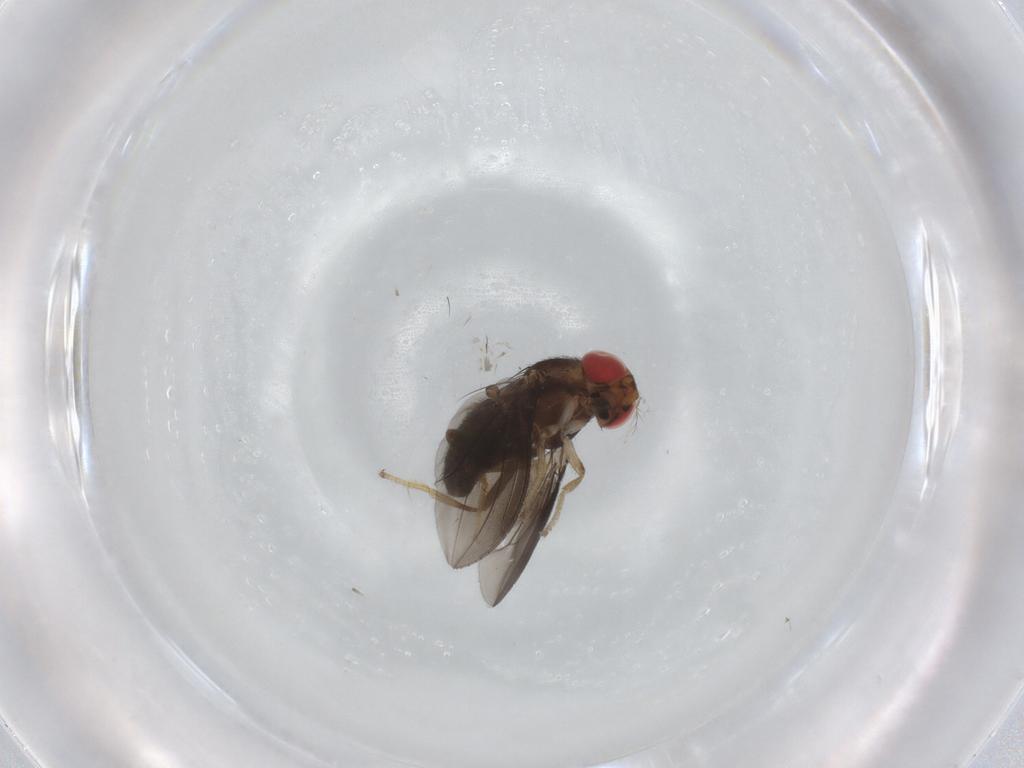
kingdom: Animalia
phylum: Arthropoda
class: Insecta
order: Diptera
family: Drosophilidae
